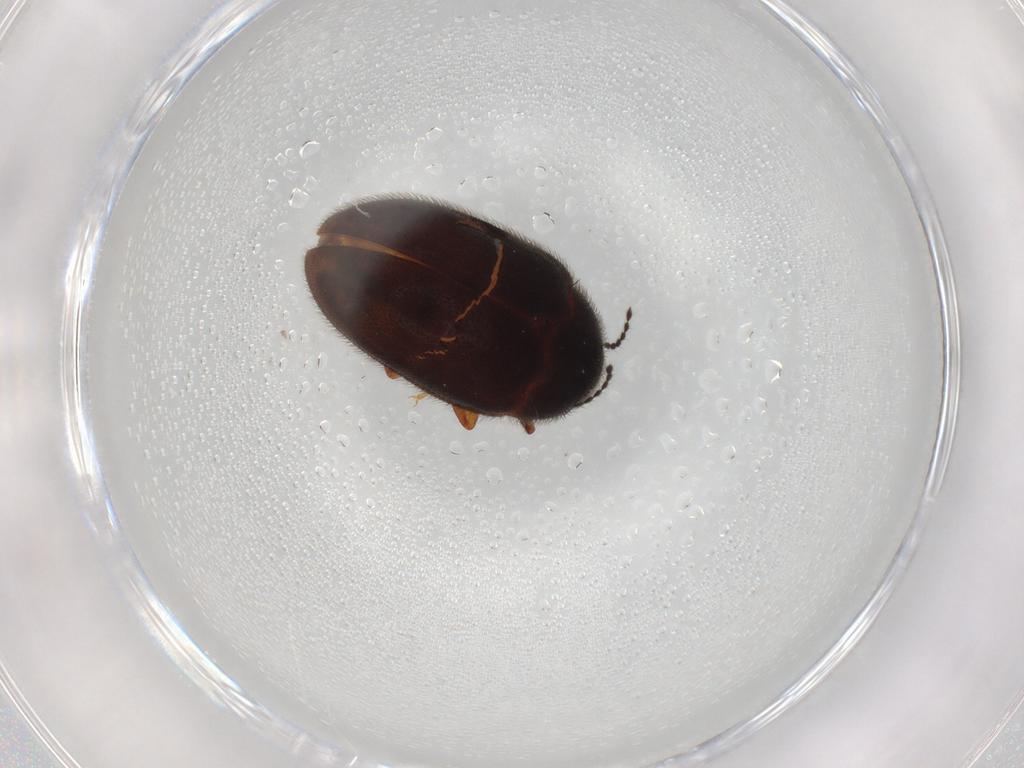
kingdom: Animalia
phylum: Arthropoda
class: Insecta
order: Coleoptera
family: Limnichidae
